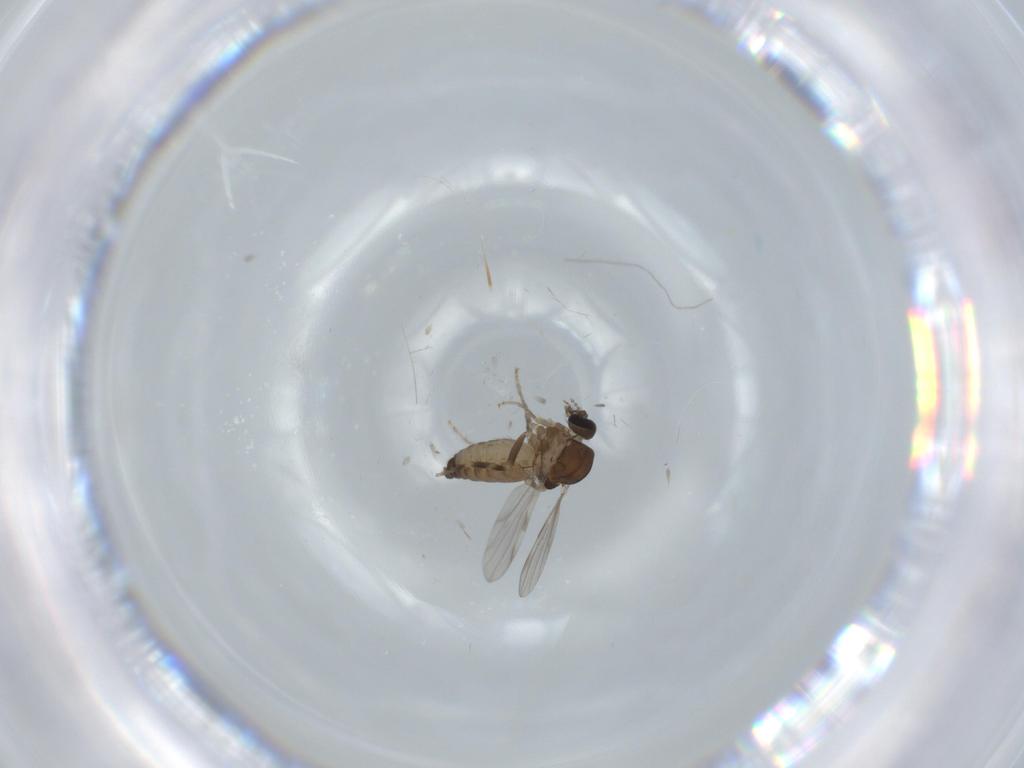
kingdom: Animalia
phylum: Arthropoda
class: Insecta
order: Diptera
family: Ceratopogonidae
